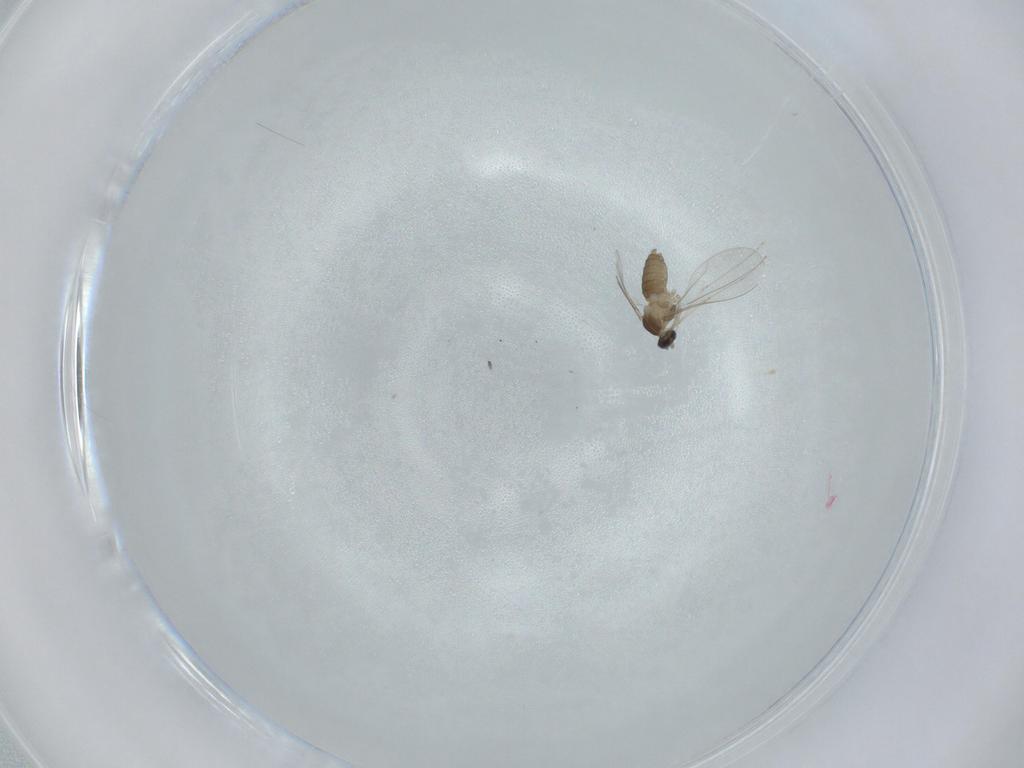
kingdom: Animalia
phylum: Arthropoda
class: Insecta
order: Diptera
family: Cecidomyiidae
